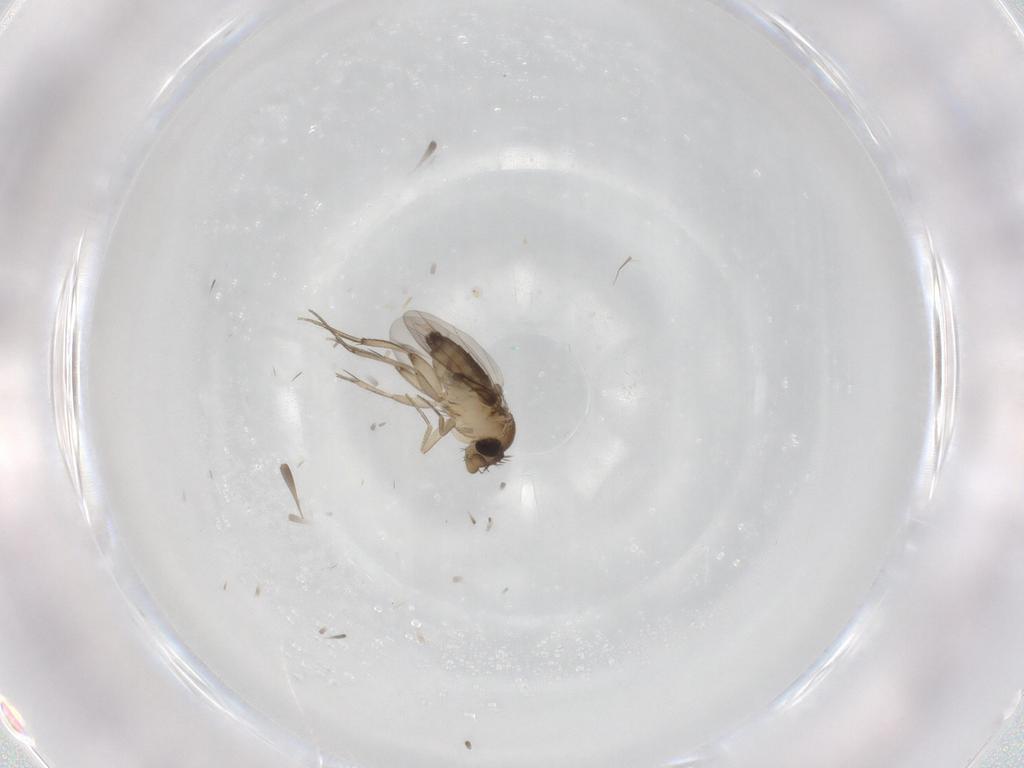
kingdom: Animalia
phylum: Arthropoda
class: Insecta
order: Diptera
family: Phoridae
